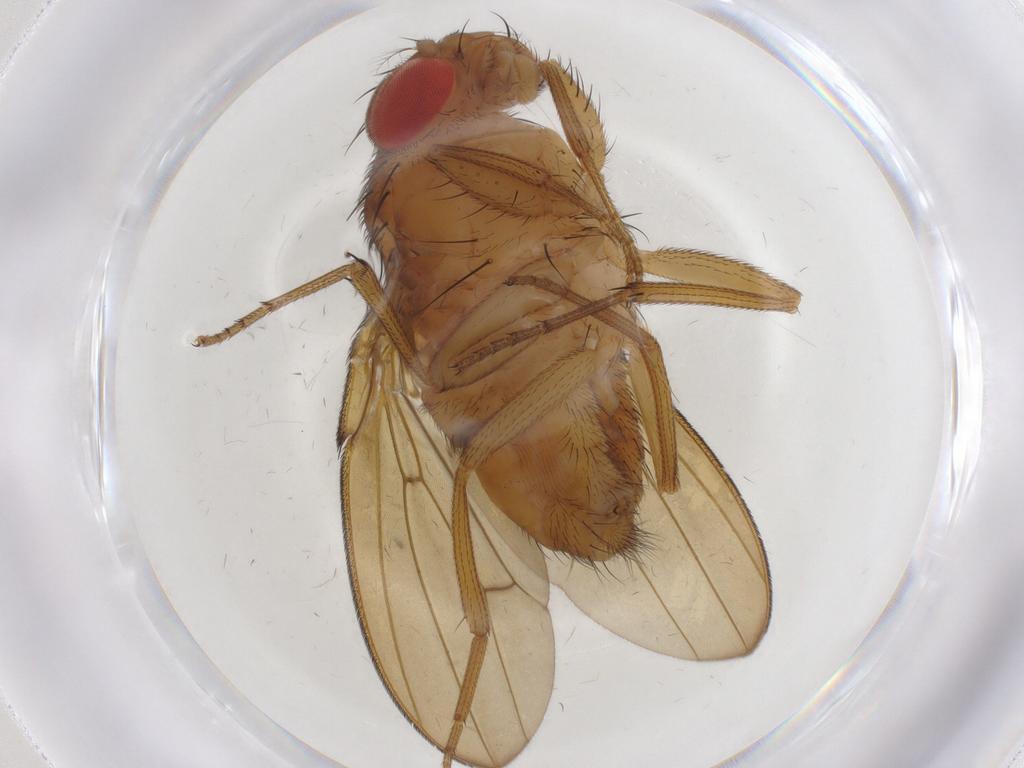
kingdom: Animalia
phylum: Arthropoda
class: Insecta
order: Diptera
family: Drosophilidae
